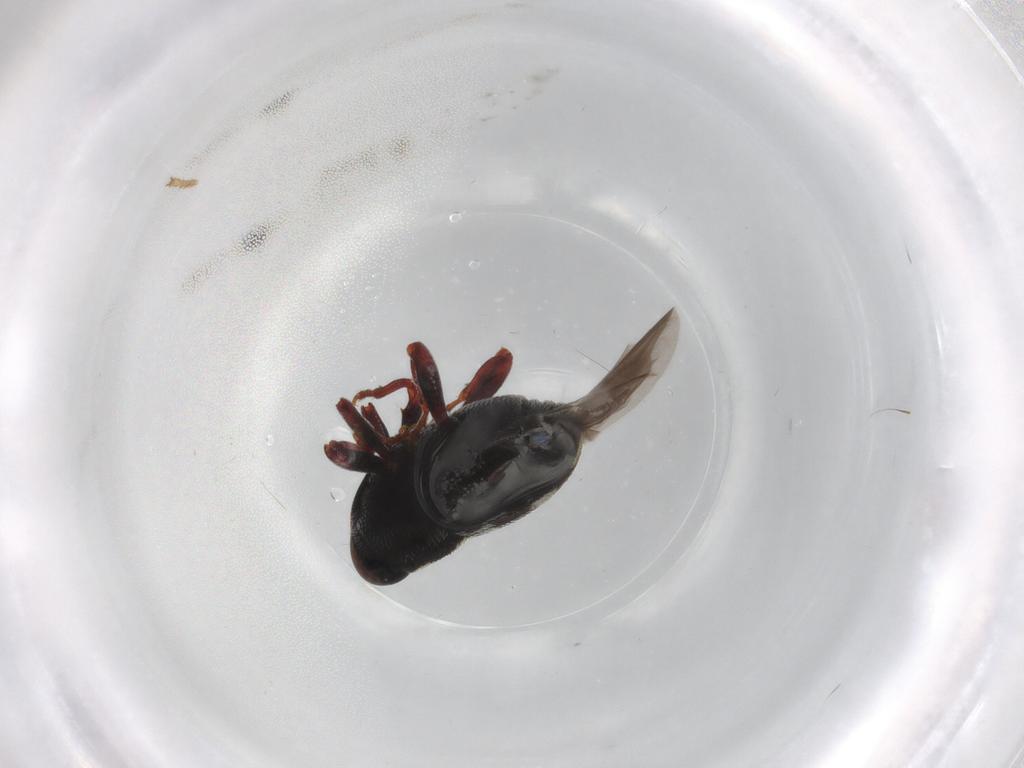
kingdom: Animalia
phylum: Arthropoda
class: Insecta
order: Coleoptera
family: Curculionidae
